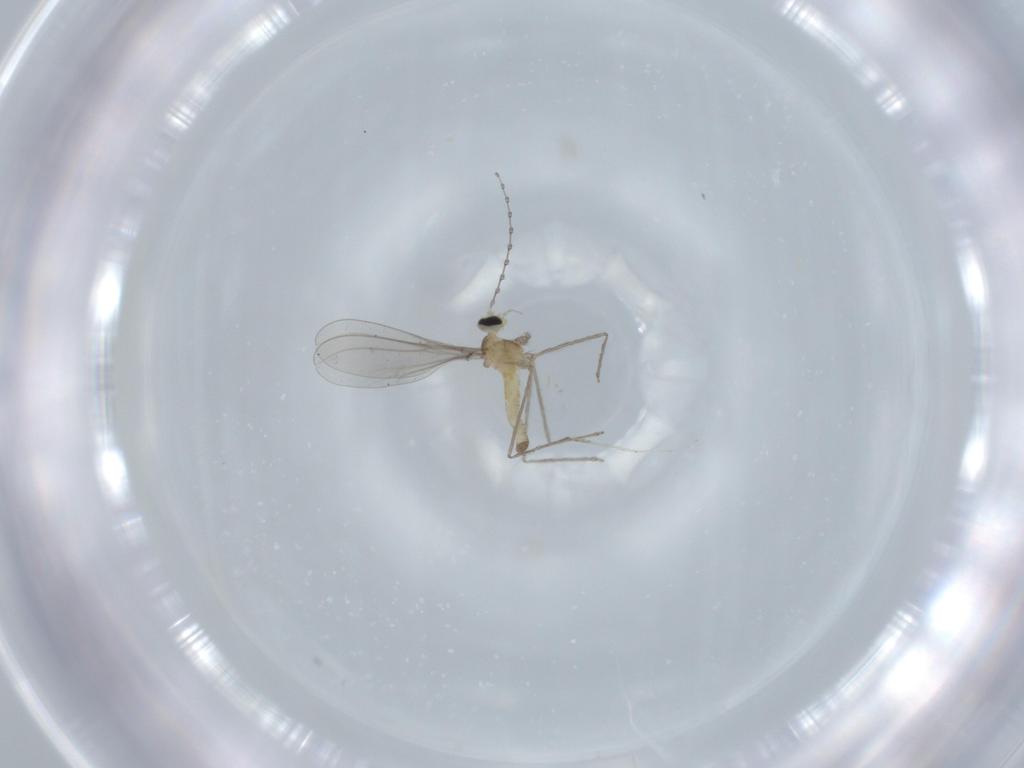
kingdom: Animalia
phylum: Arthropoda
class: Insecta
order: Diptera
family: Cecidomyiidae
